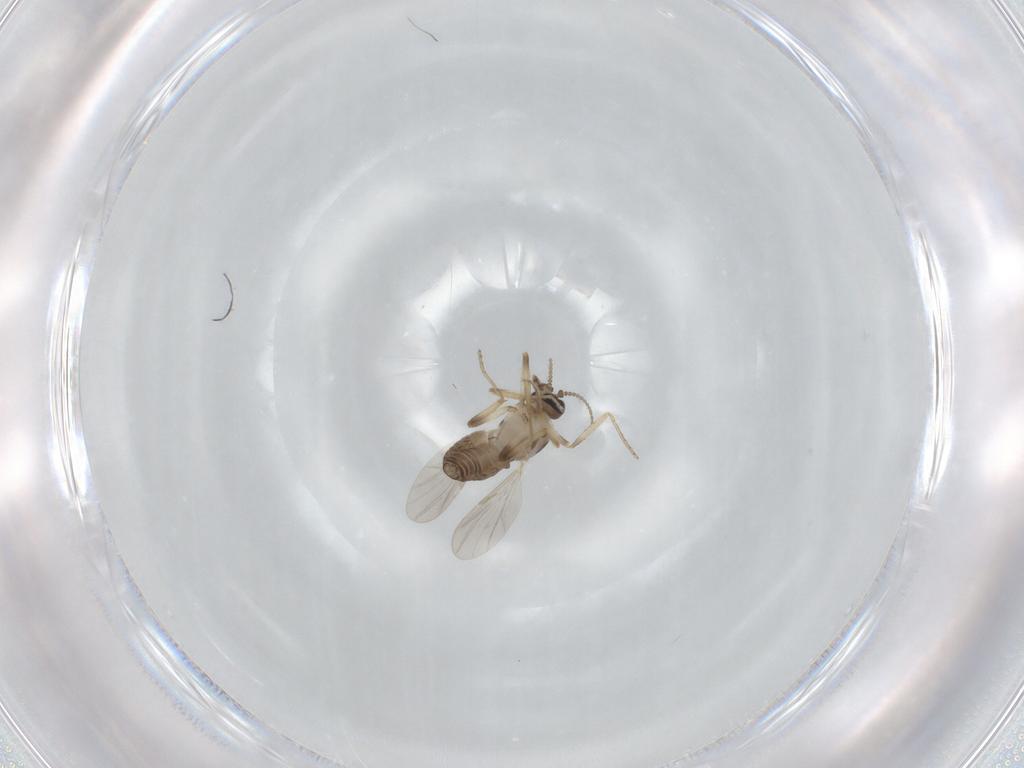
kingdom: Animalia
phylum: Arthropoda
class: Insecta
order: Diptera
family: Ceratopogonidae
